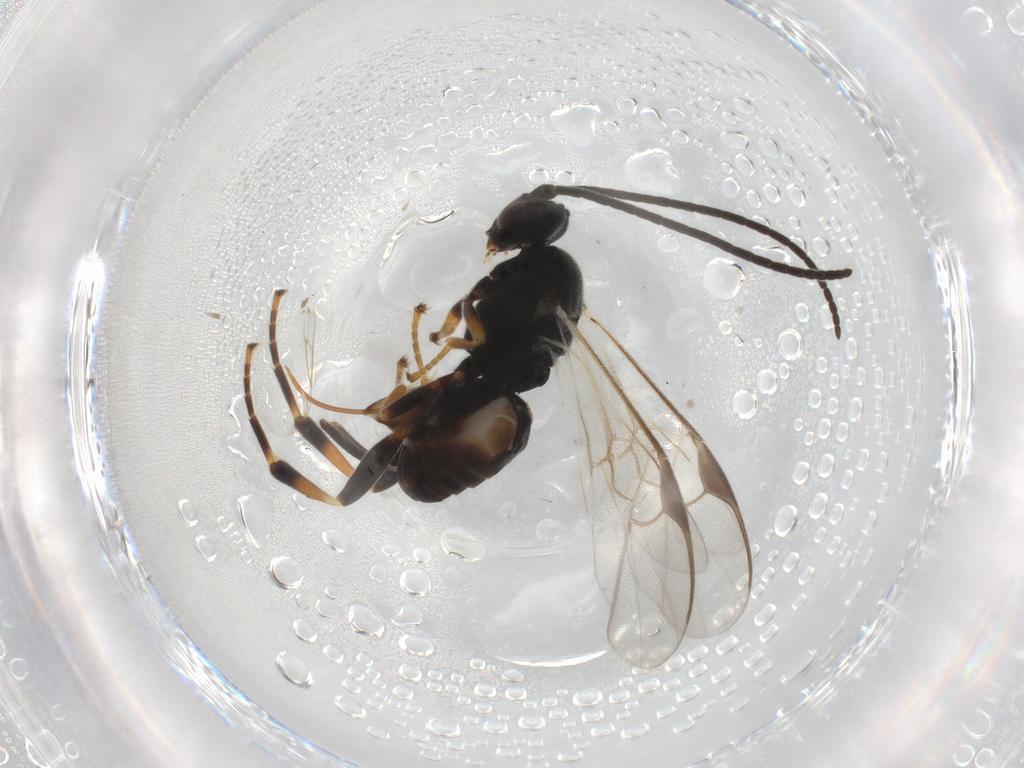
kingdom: Animalia
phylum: Arthropoda
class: Insecta
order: Hymenoptera
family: Braconidae
